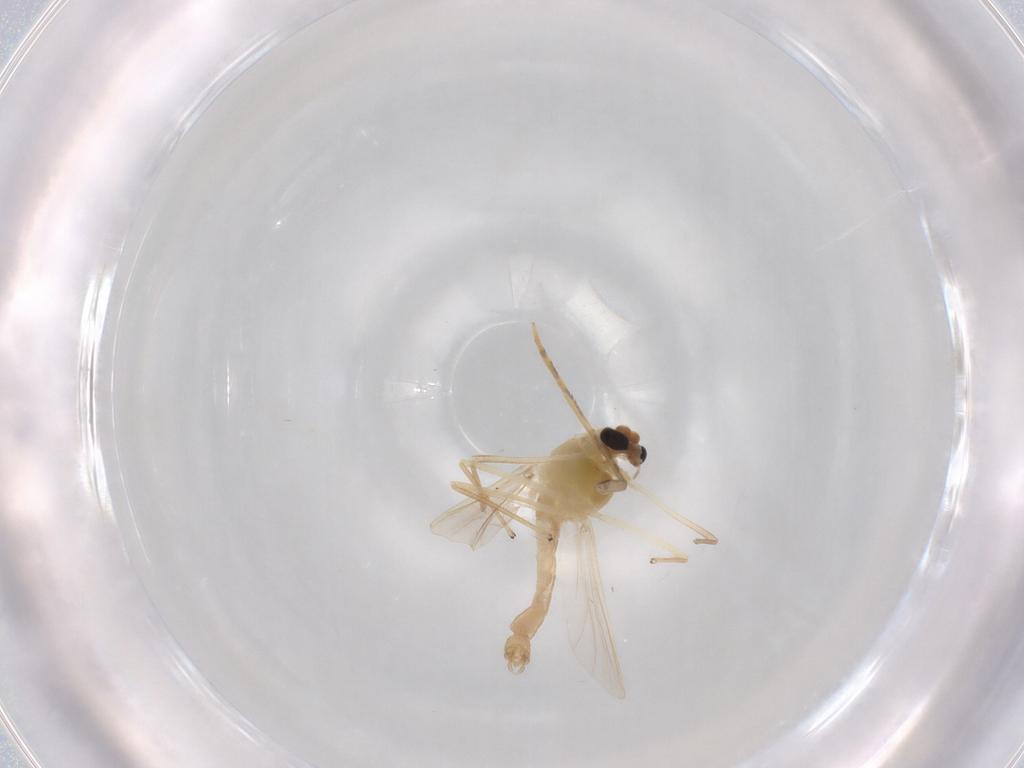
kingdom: Animalia
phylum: Arthropoda
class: Insecta
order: Diptera
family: Chironomidae
